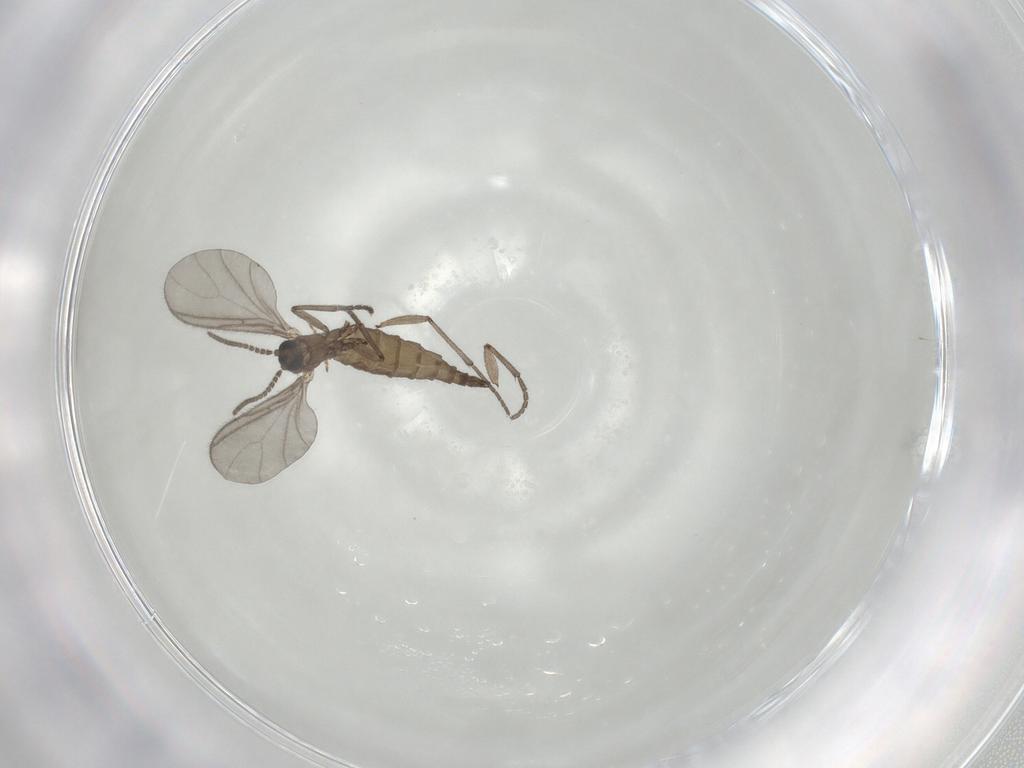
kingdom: Animalia
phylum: Arthropoda
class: Insecta
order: Diptera
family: Sciaridae
